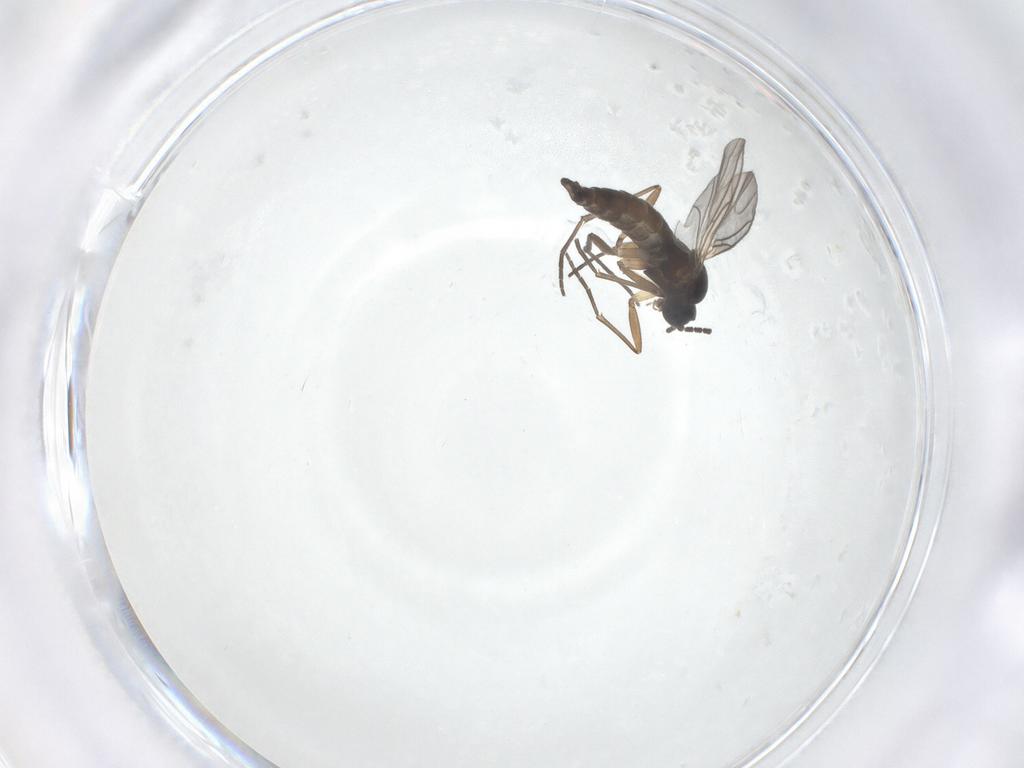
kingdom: Animalia
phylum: Arthropoda
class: Insecta
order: Diptera
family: Sciaridae
